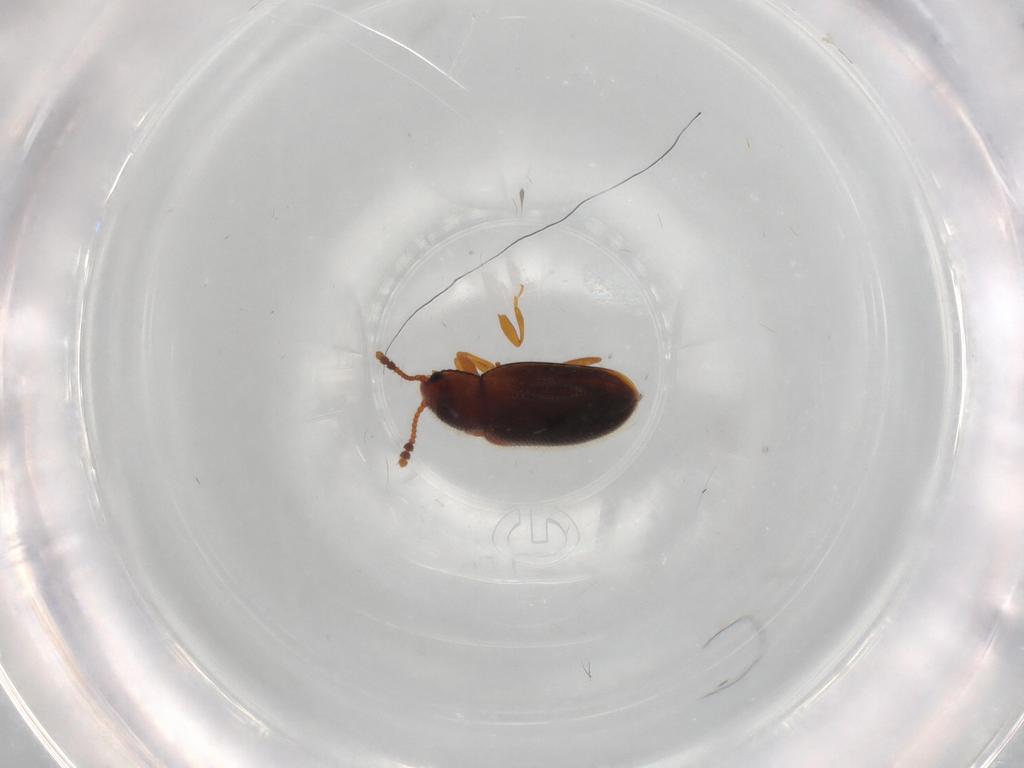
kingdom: Animalia
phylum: Arthropoda
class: Insecta
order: Coleoptera
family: Erotylidae
